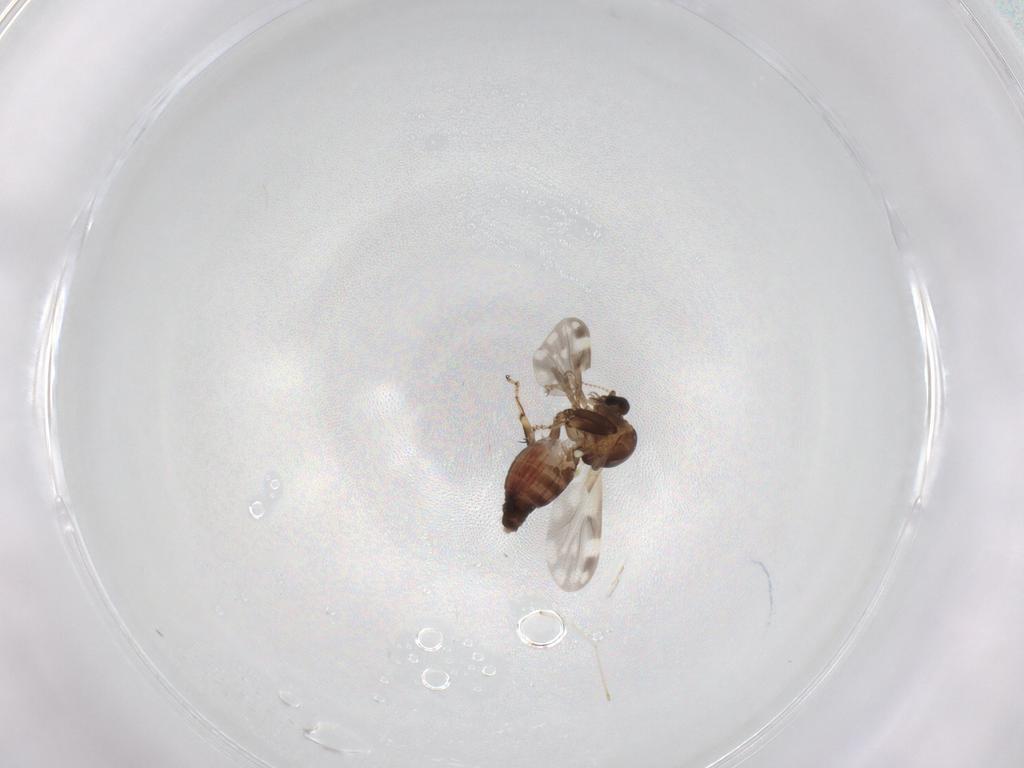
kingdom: Animalia
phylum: Arthropoda
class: Insecta
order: Diptera
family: Ceratopogonidae
